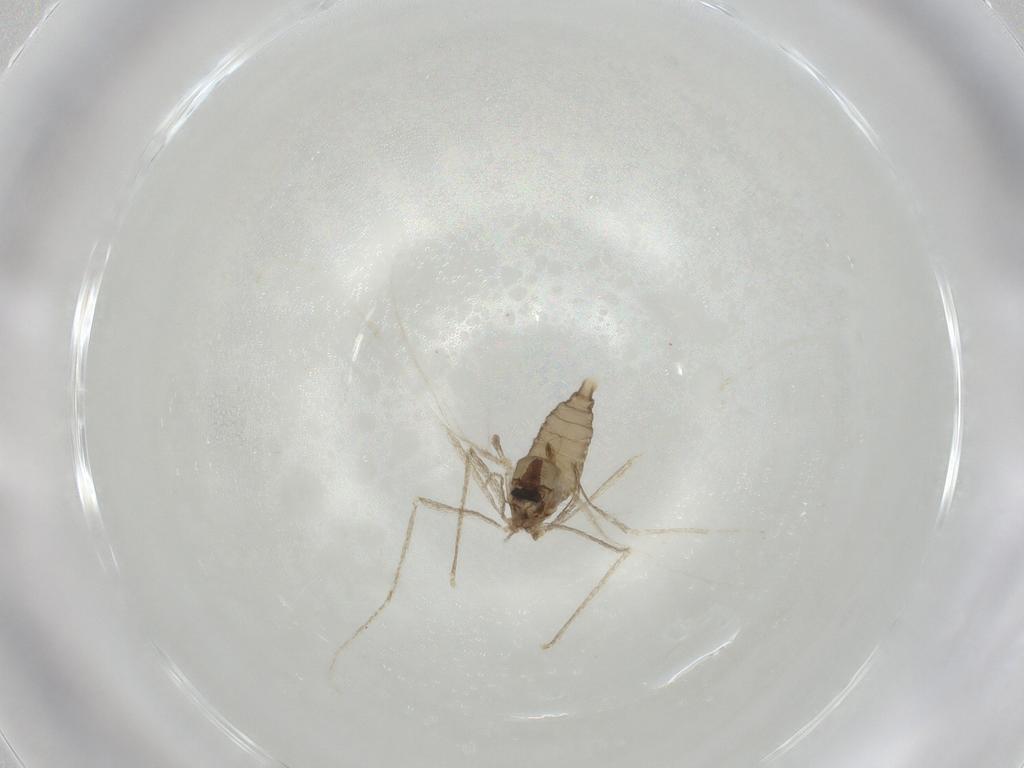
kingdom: Animalia
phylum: Arthropoda
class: Insecta
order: Diptera
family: Cecidomyiidae
